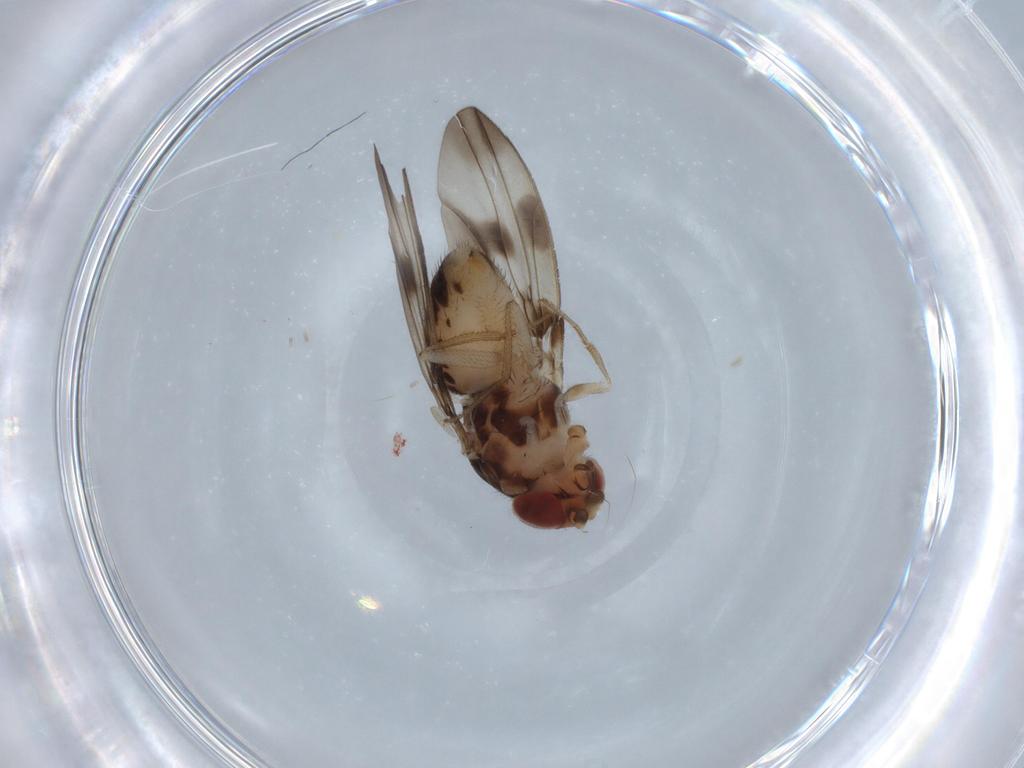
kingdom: Animalia
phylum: Arthropoda
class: Insecta
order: Diptera
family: Drosophilidae
